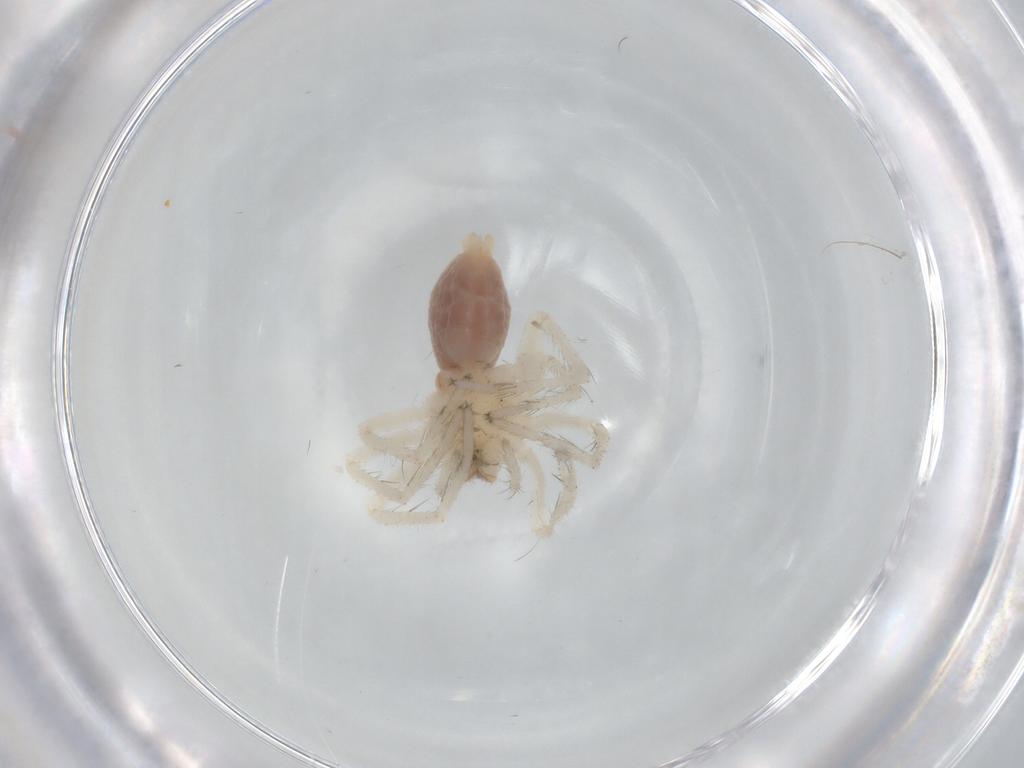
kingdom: Animalia
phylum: Arthropoda
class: Arachnida
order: Araneae
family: Anyphaenidae
